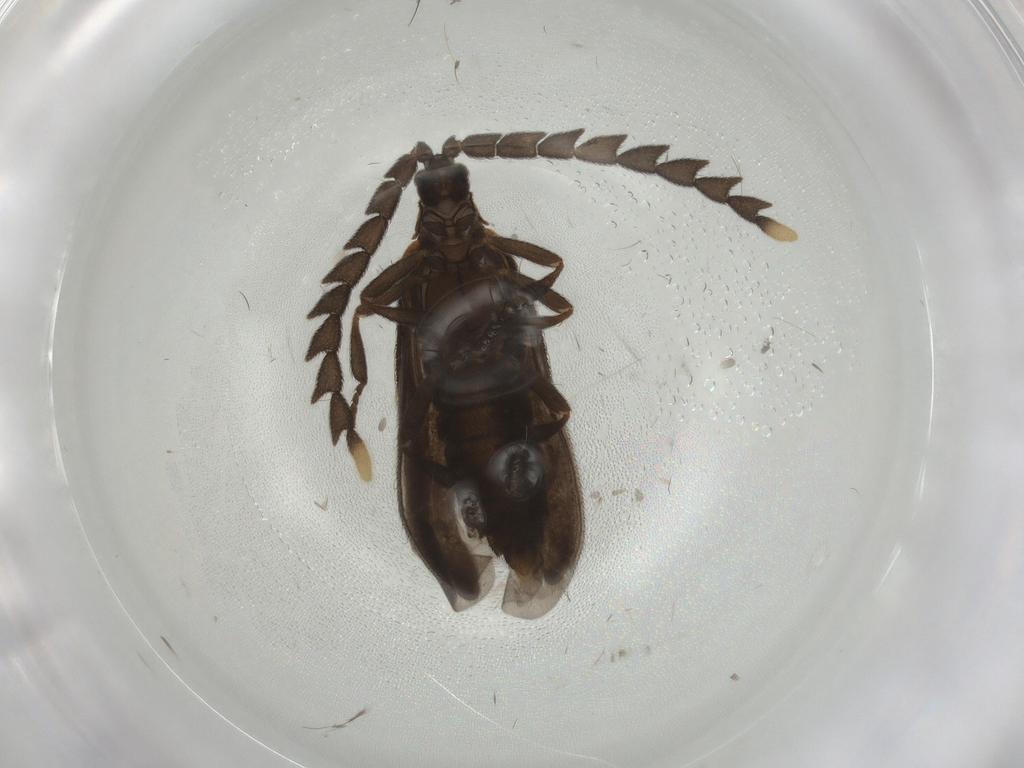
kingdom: Animalia
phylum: Arthropoda
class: Insecta
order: Coleoptera
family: Lycidae
